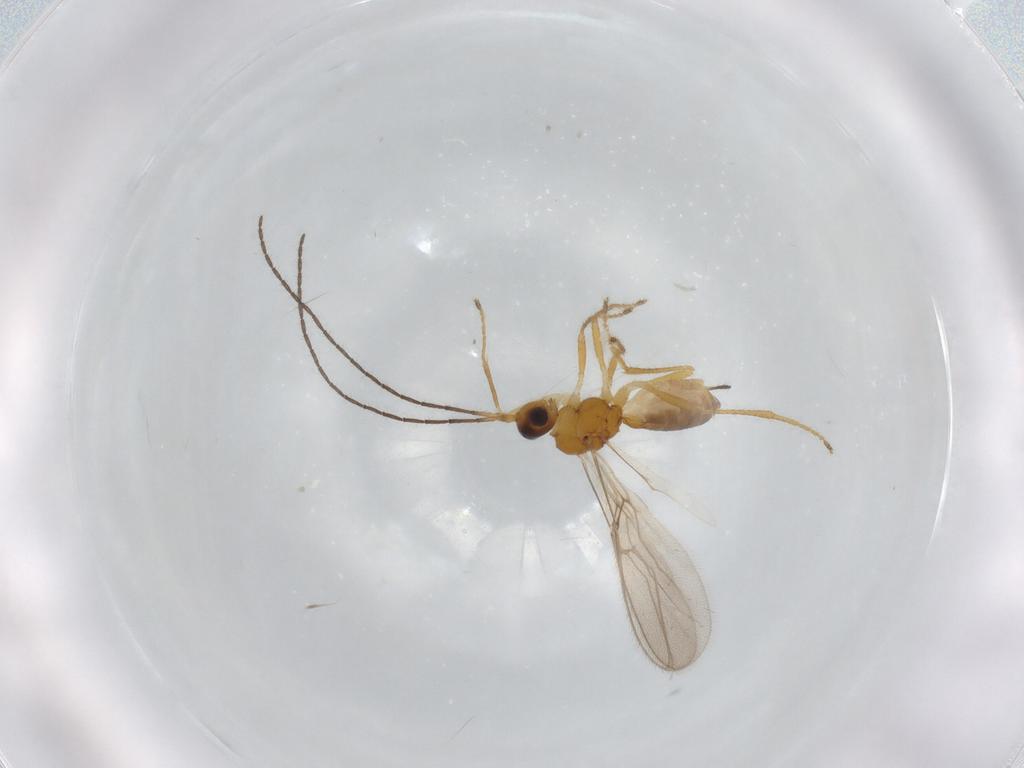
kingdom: Animalia
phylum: Arthropoda
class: Insecta
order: Hymenoptera
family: Braconidae
